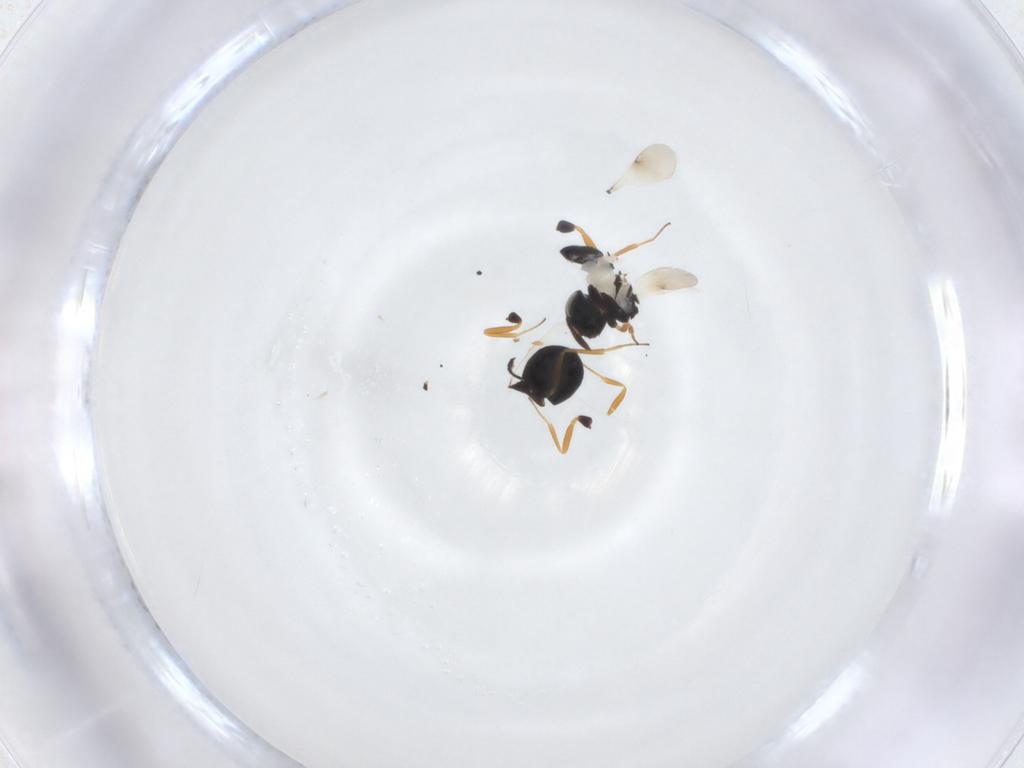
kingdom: Animalia
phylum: Arthropoda
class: Insecta
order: Hymenoptera
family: Scelionidae
